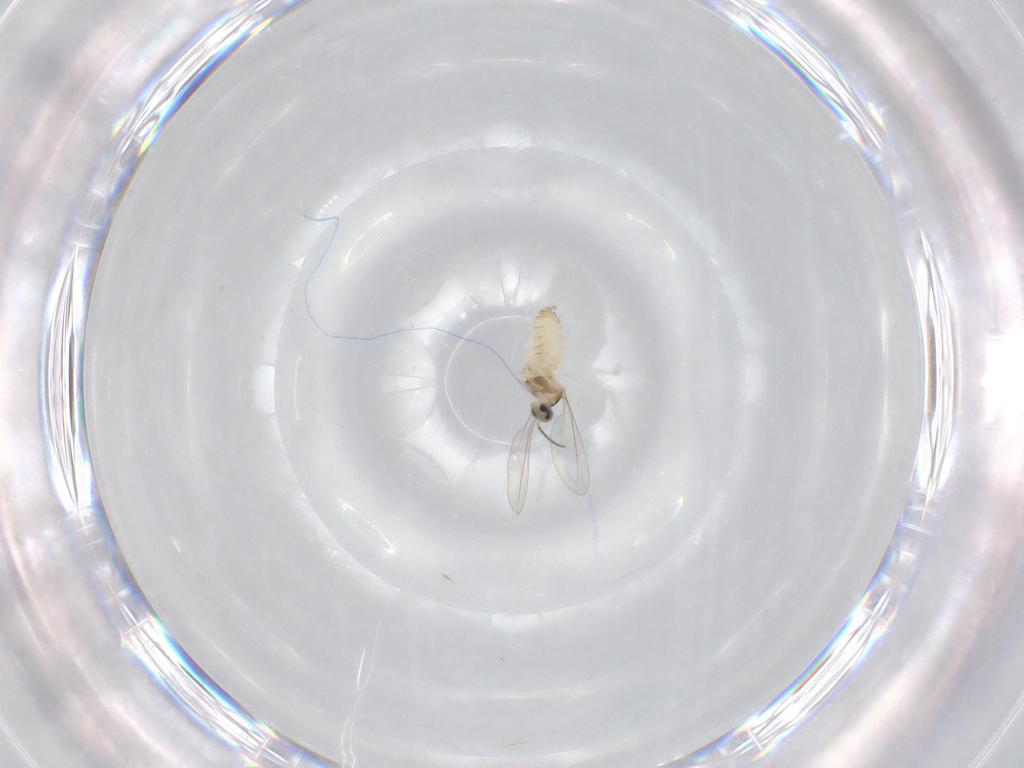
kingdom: Animalia
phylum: Arthropoda
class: Insecta
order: Diptera
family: Cecidomyiidae
